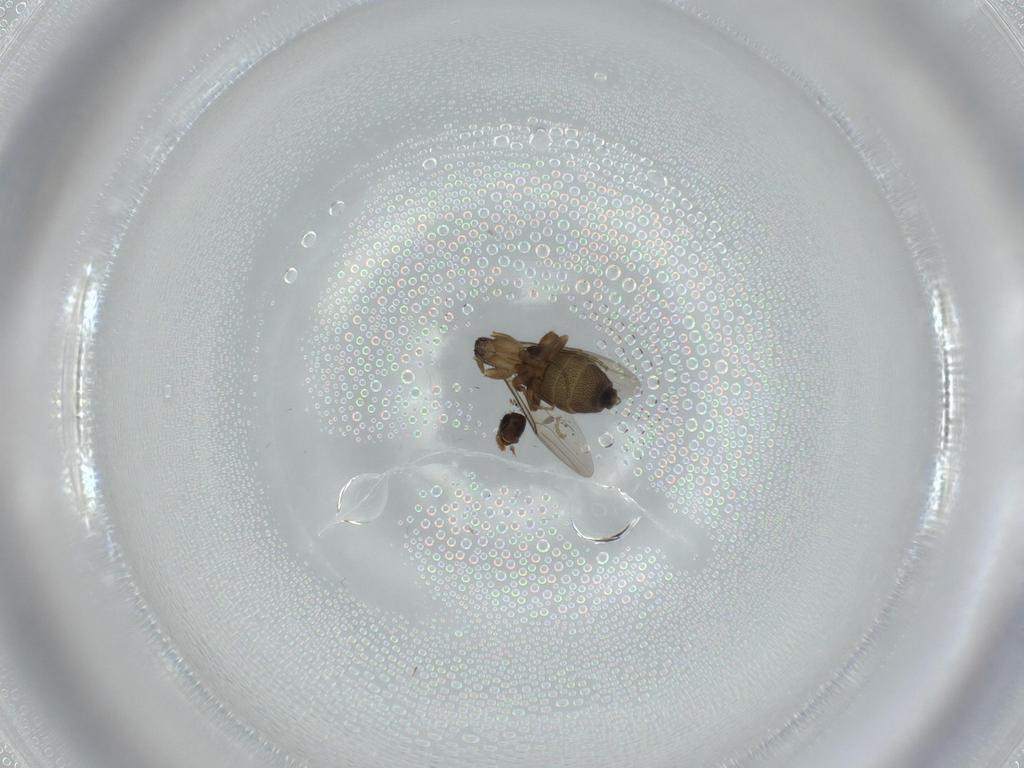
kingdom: Animalia
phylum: Arthropoda
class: Insecta
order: Diptera
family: Phoridae
